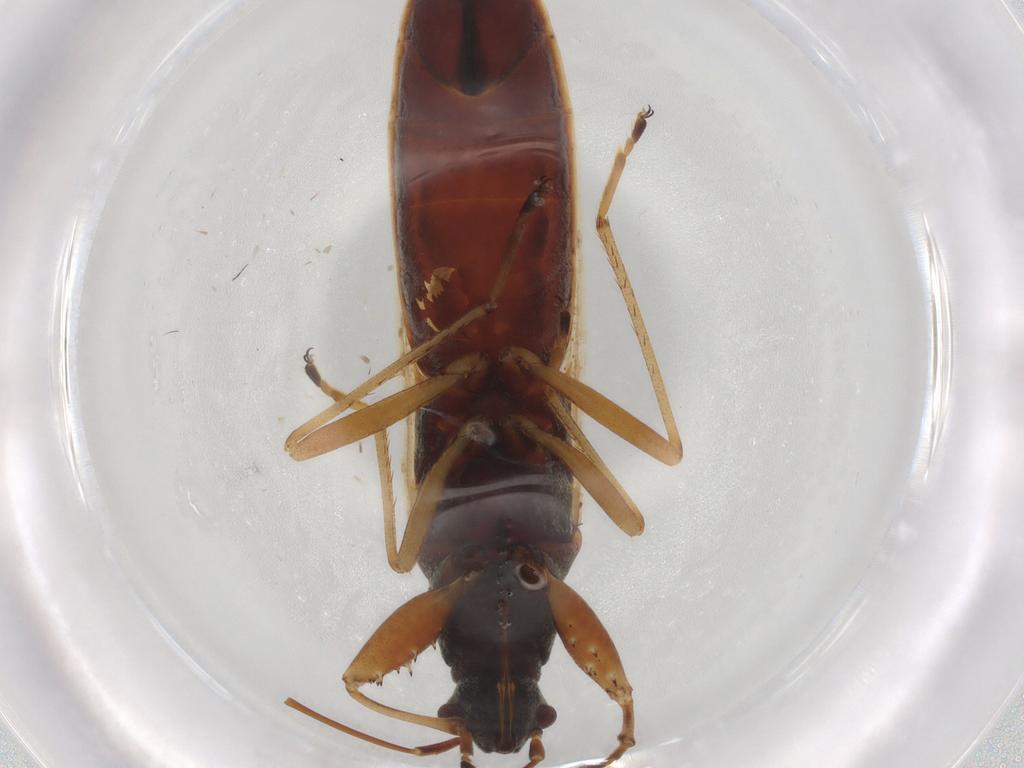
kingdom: Animalia
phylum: Arthropoda
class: Insecta
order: Hemiptera
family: Rhyparochromidae
